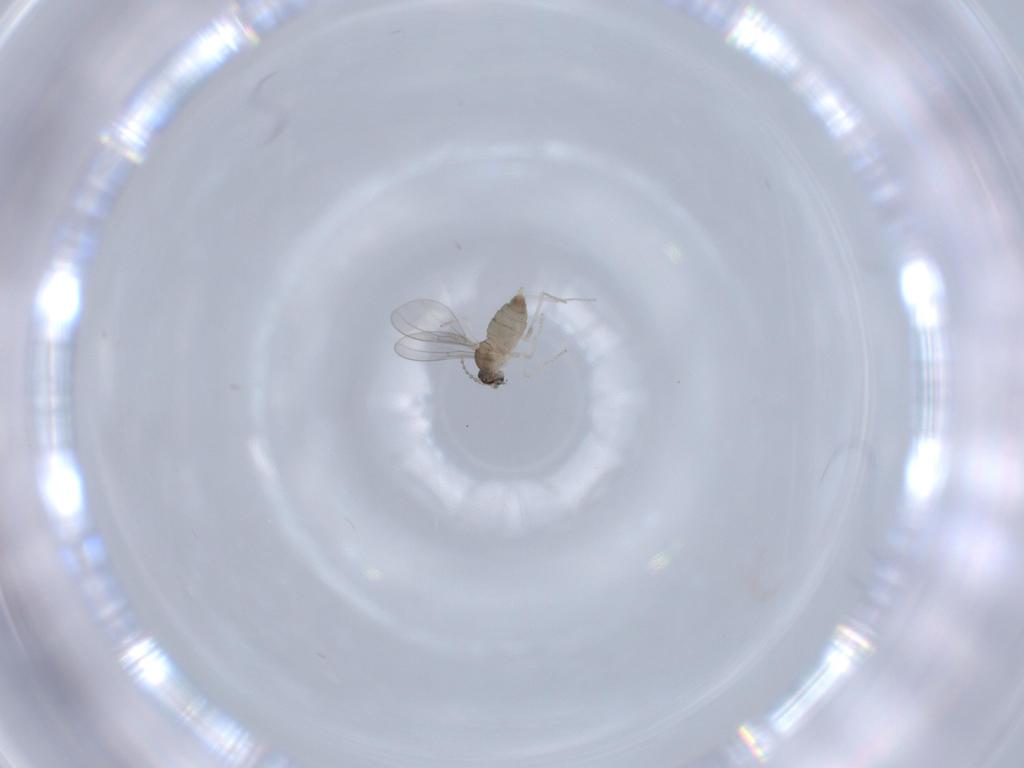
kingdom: Animalia
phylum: Arthropoda
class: Insecta
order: Diptera
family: Cecidomyiidae
